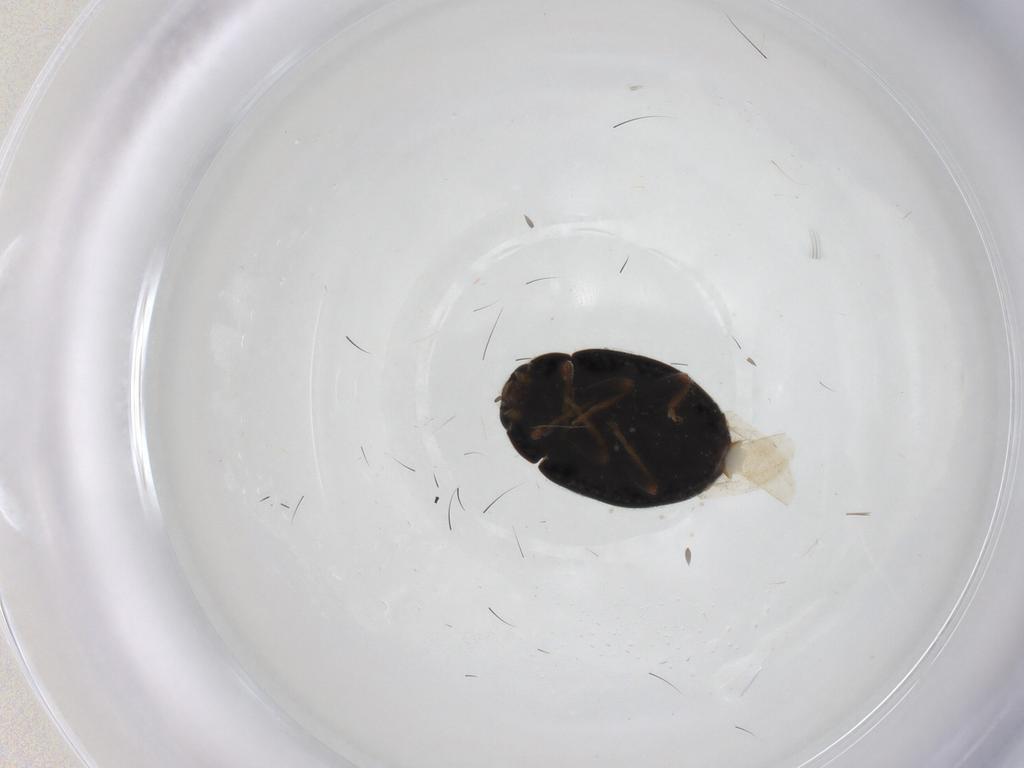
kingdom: Animalia
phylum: Arthropoda
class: Insecta
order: Coleoptera
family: Coccinellidae
